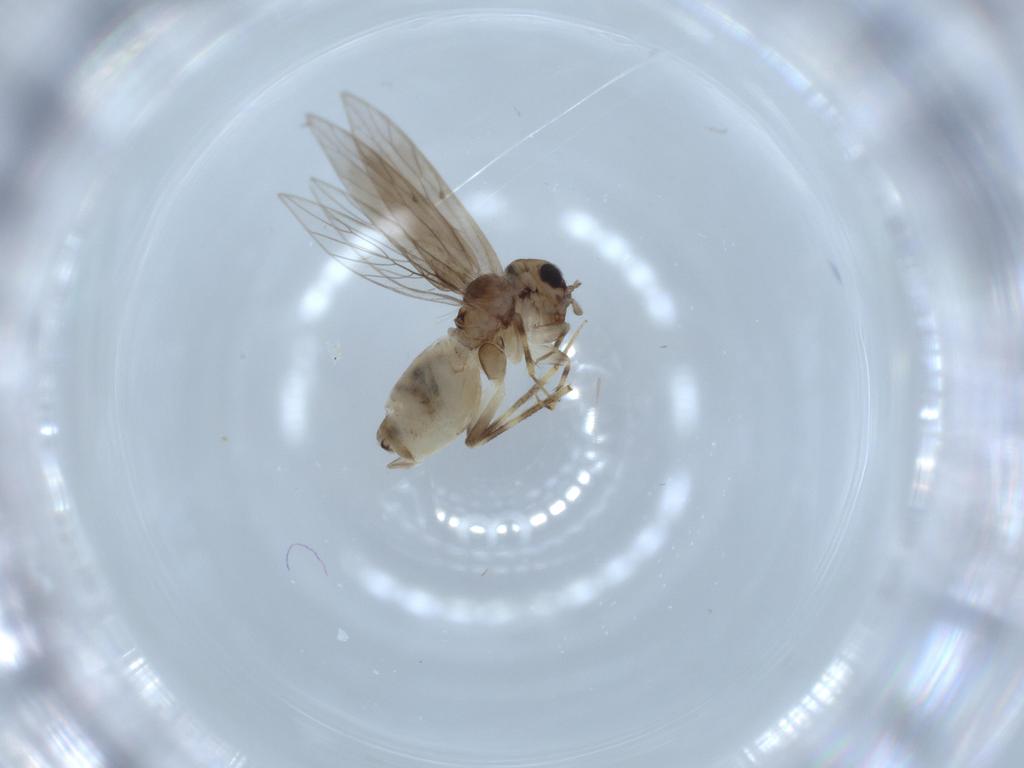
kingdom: Animalia
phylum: Arthropoda
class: Insecta
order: Psocodea
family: Lepidopsocidae
